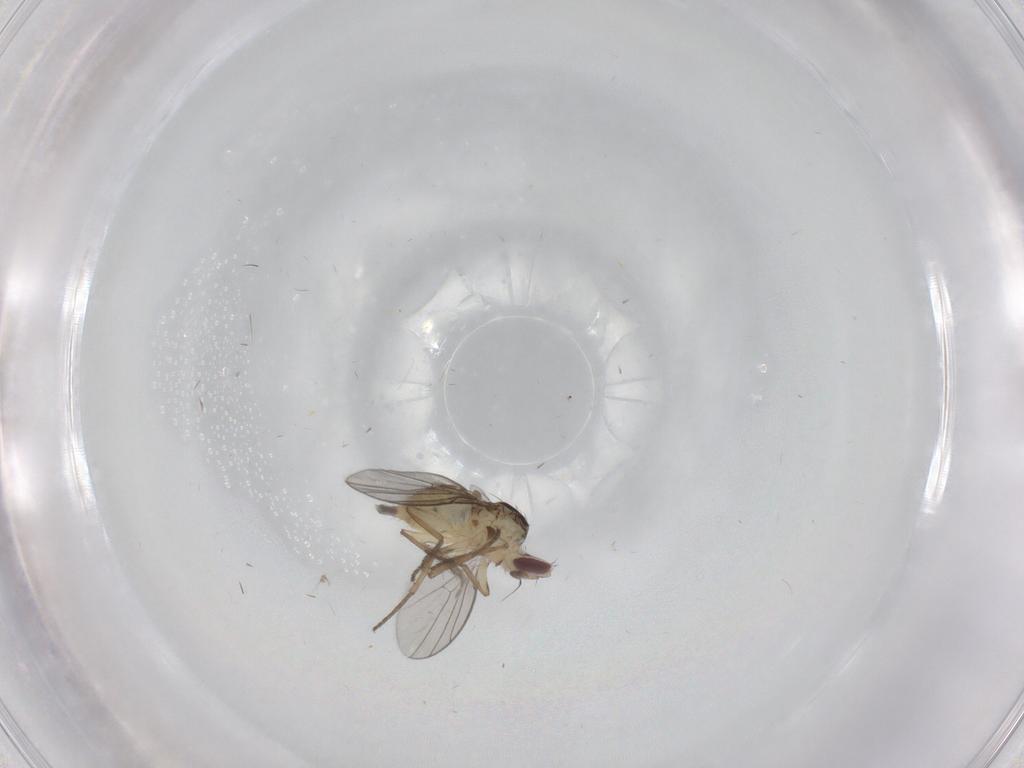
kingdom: Animalia
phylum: Arthropoda
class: Insecta
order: Diptera
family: Agromyzidae
